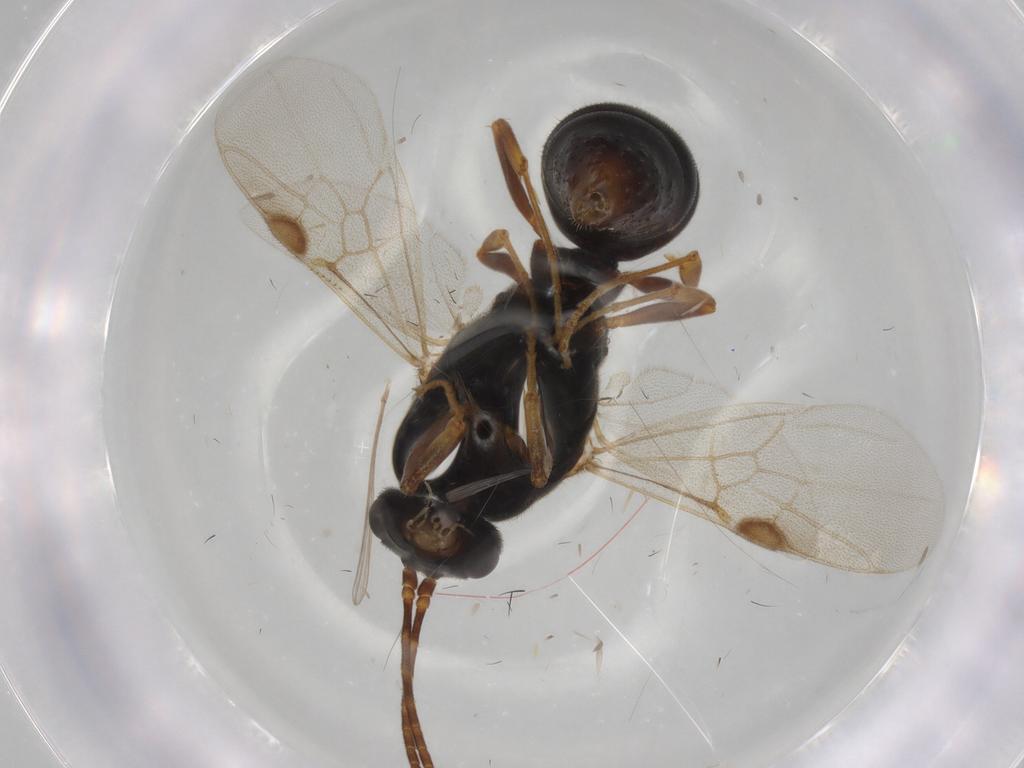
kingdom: Animalia
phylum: Arthropoda
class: Insecta
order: Hymenoptera
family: Formicidae
